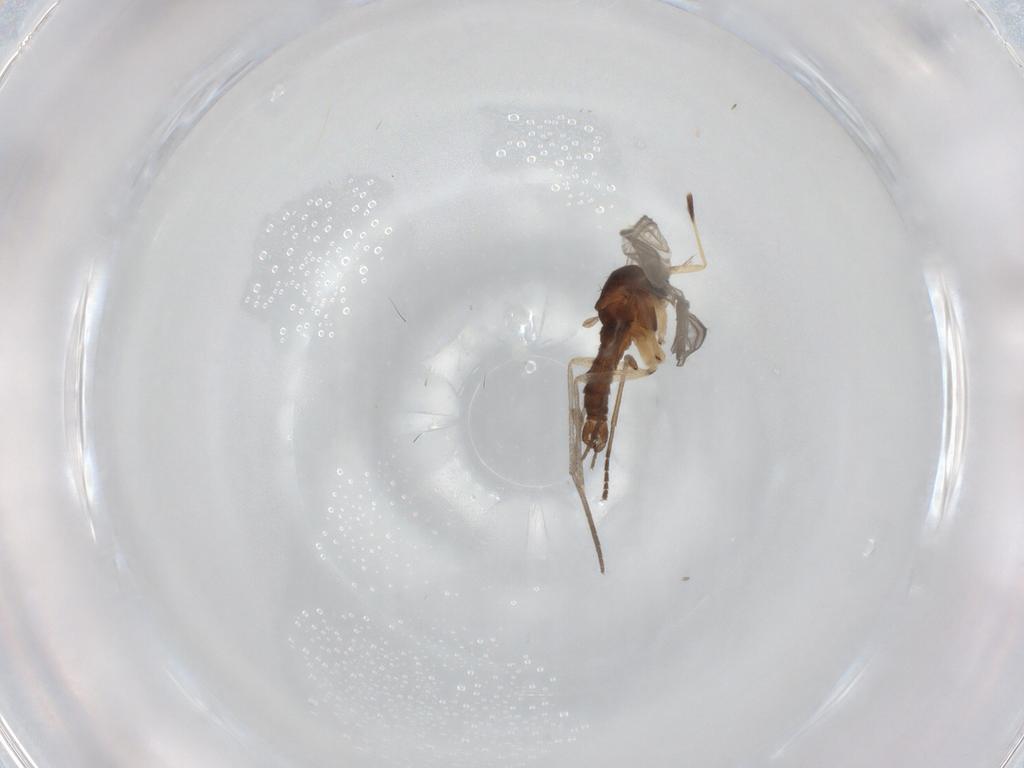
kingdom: Animalia
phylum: Arthropoda
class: Insecta
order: Diptera
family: Sciaridae
